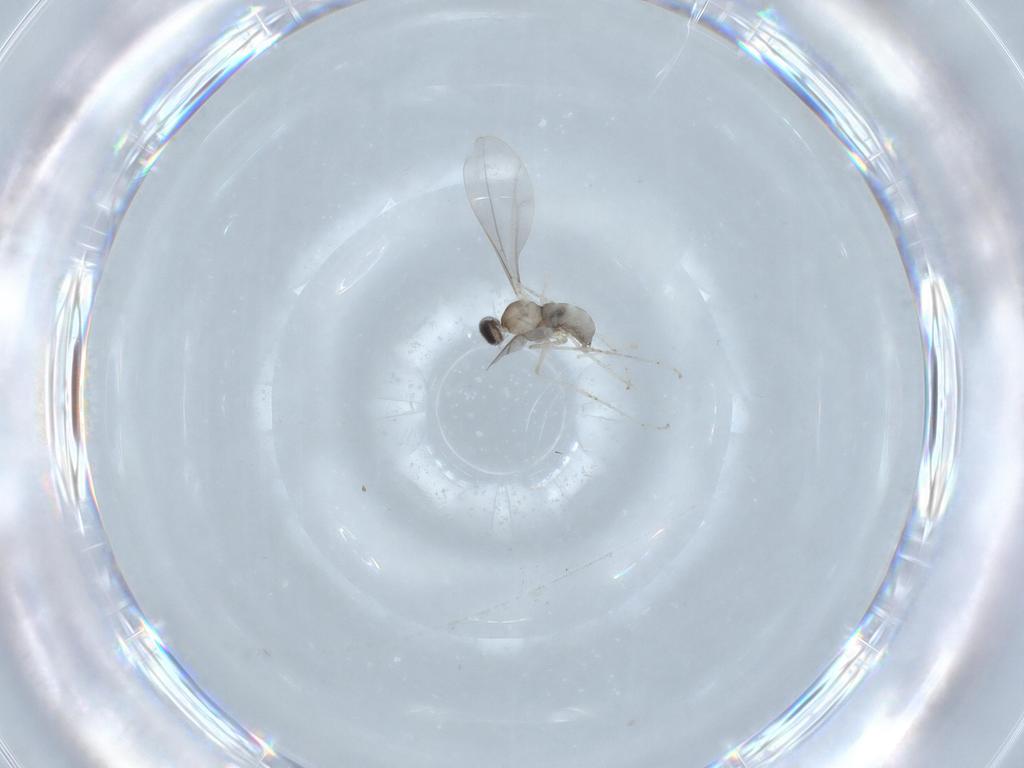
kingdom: Animalia
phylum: Arthropoda
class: Insecta
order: Diptera
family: Cecidomyiidae
